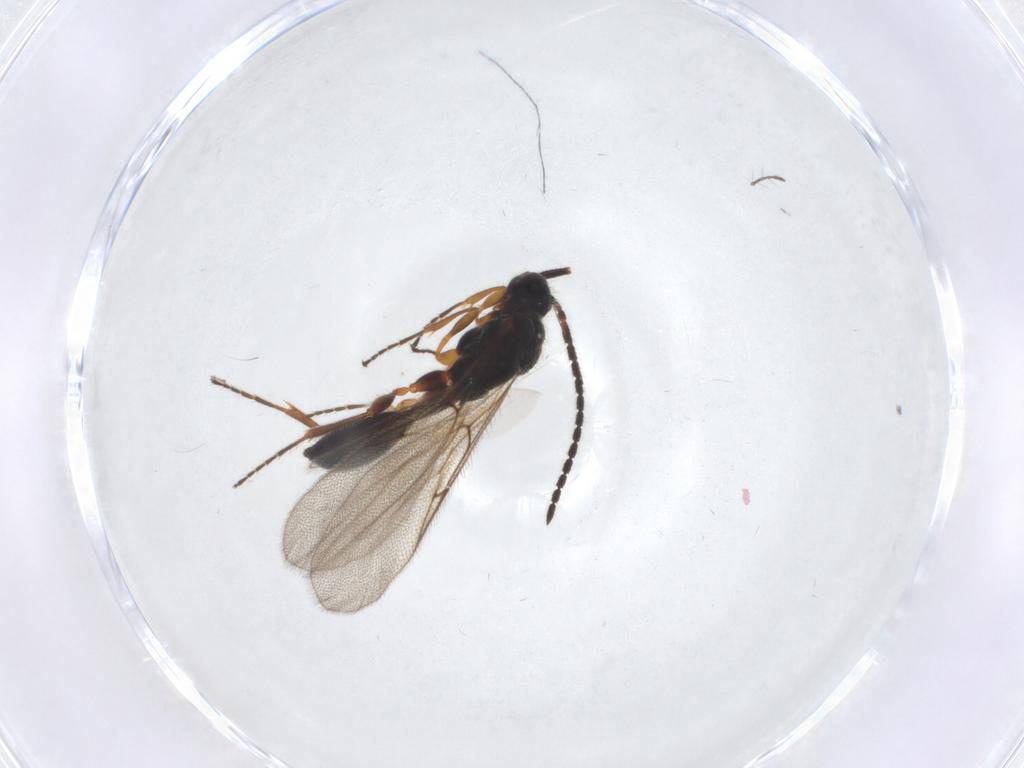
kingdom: Animalia
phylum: Arthropoda
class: Insecta
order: Hymenoptera
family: Diapriidae
